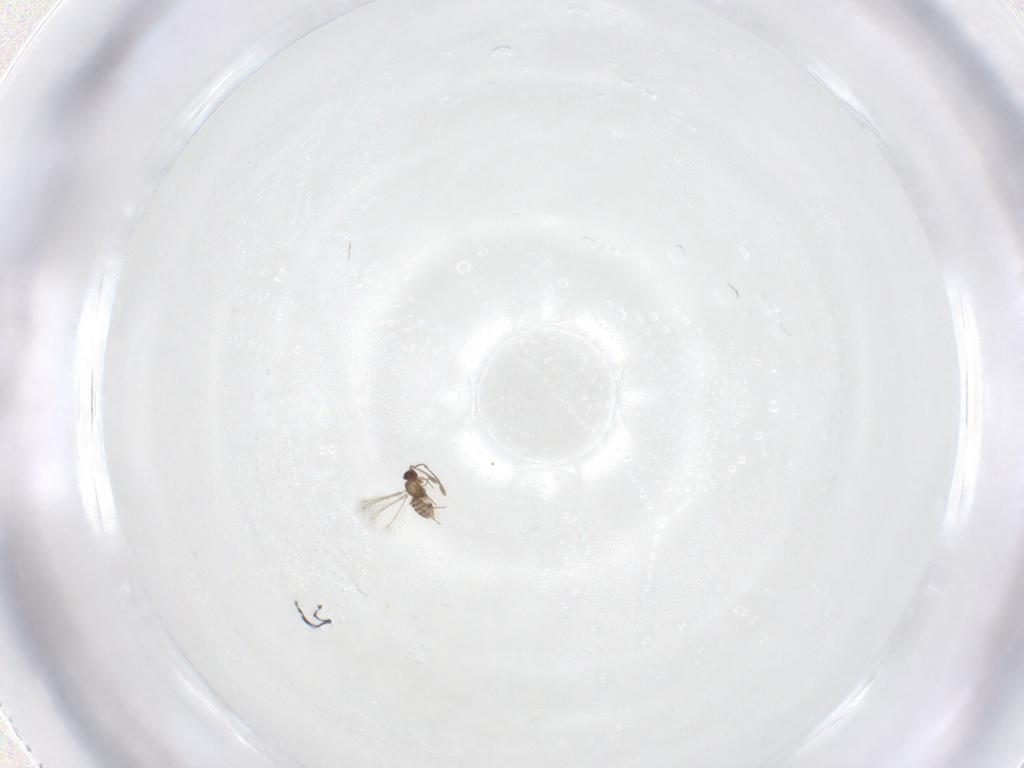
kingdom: Animalia
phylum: Arthropoda
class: Insecta
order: Hymenoptera
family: Mymaridae
